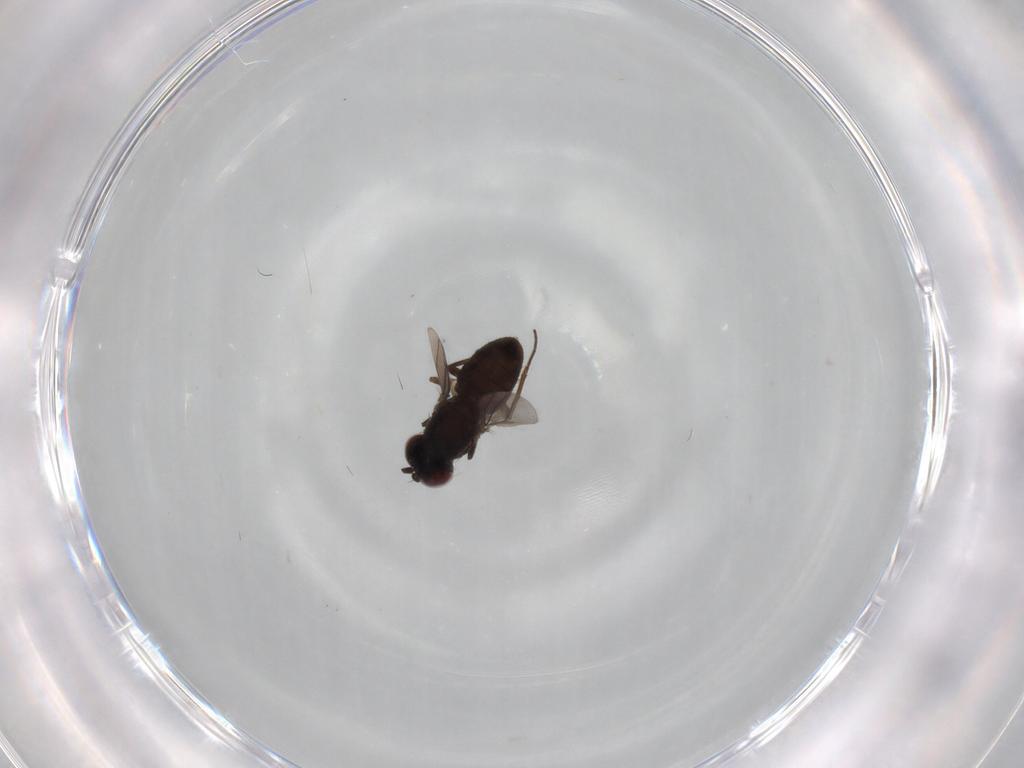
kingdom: Animalia
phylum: Arthropoda
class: Insecta
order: Diptera
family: Dolichopodidae
